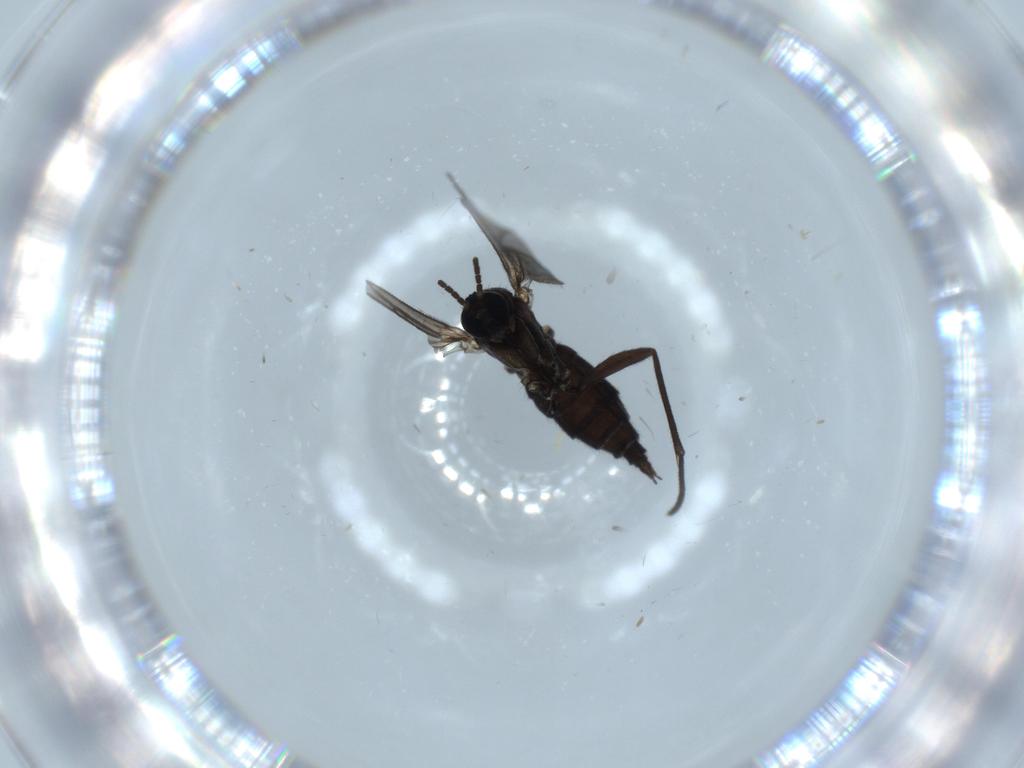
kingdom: Animalia
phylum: Arthropoda
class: Insecta
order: Diptera
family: Sciaridae
